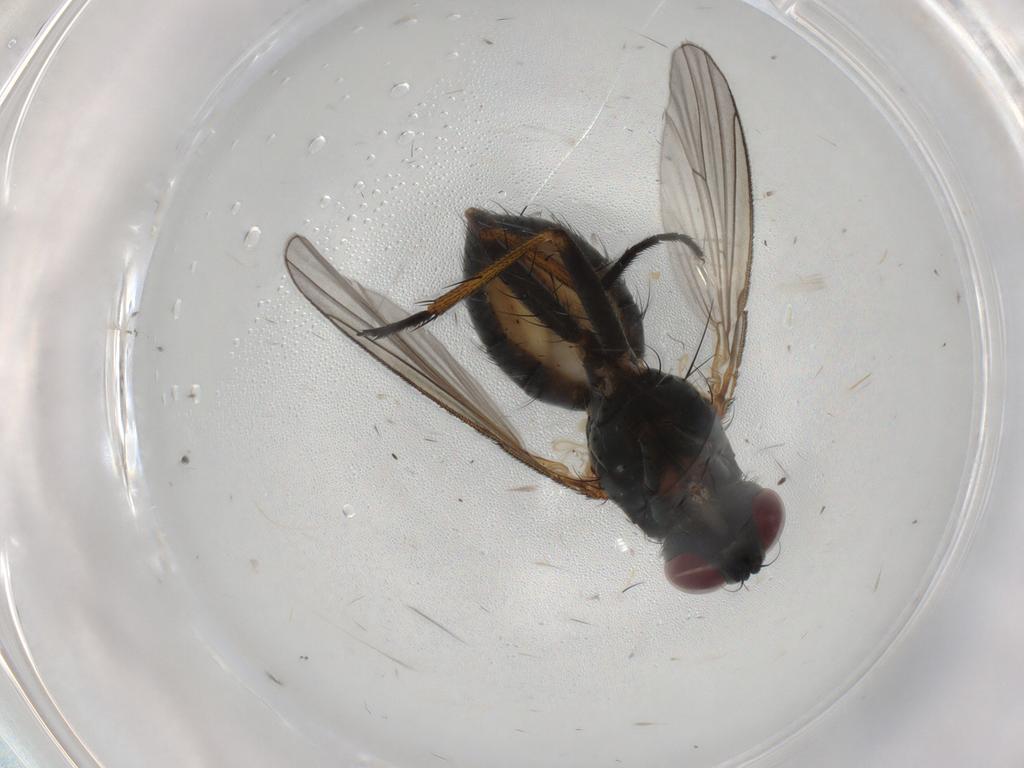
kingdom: Animalia
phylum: Arthropoda
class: Insecta
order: Diptera
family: Muscidae
